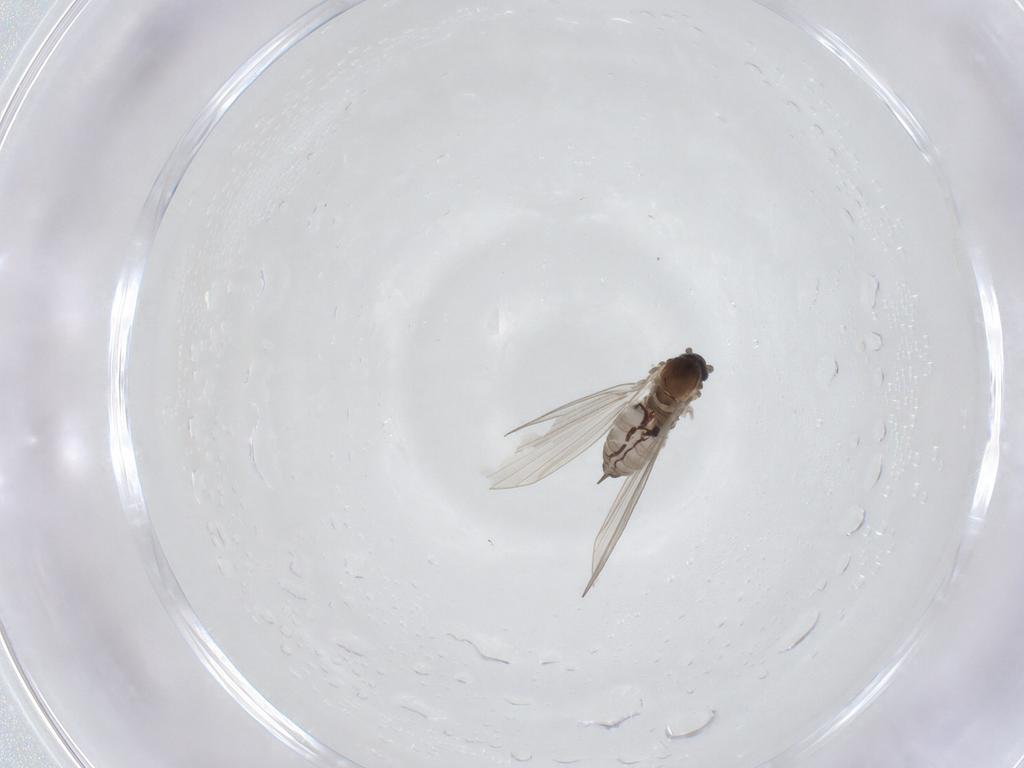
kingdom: Animalia
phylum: Arthropoda
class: Insecta
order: Diptera
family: Psychodidae
